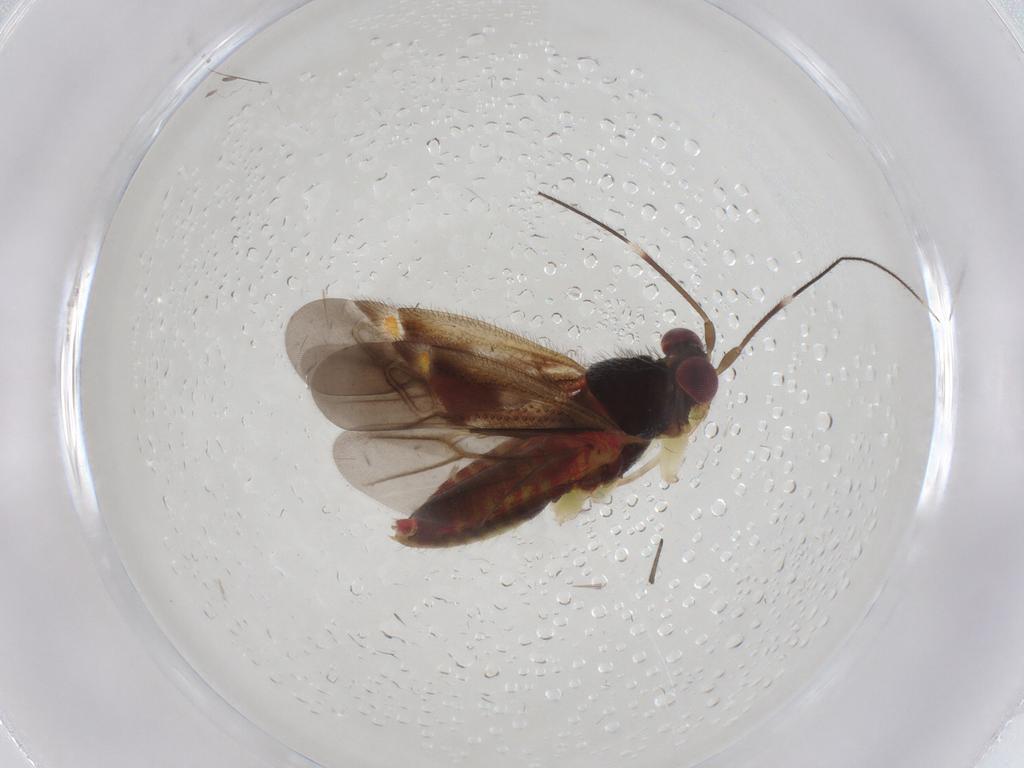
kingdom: Animalia
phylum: Arthropoda
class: Insecta
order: Hemiptera
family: Miridae
